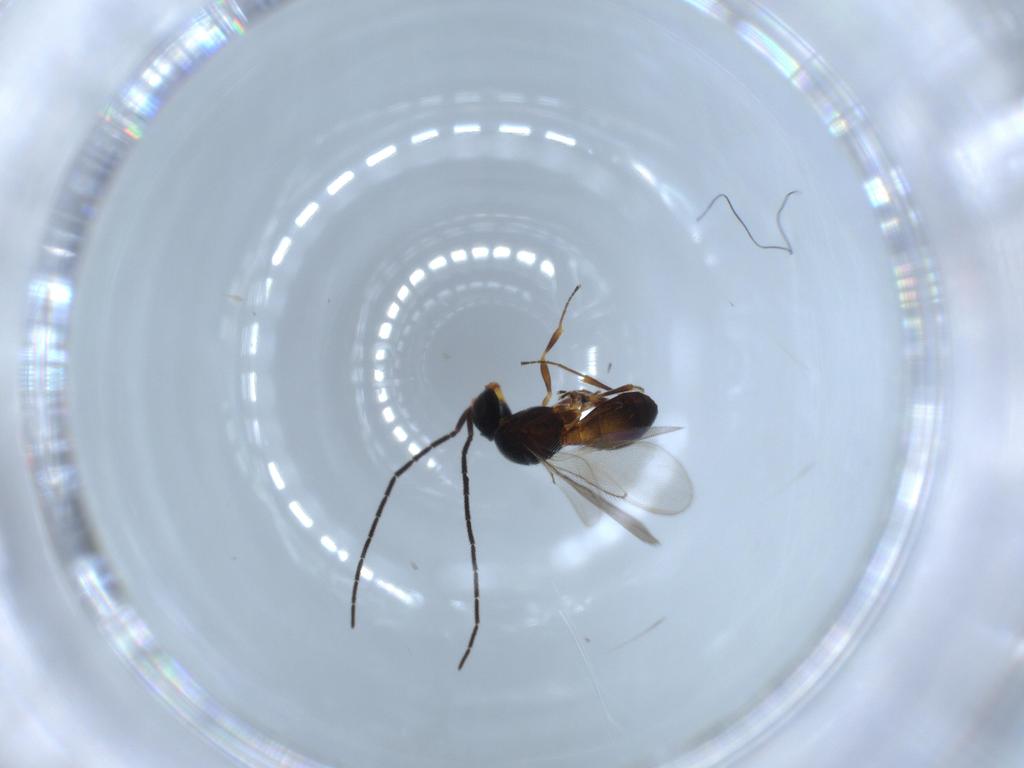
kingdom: Animalia
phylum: Arthropoda
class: Insecta
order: Hymenoptera
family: Scelionidae
